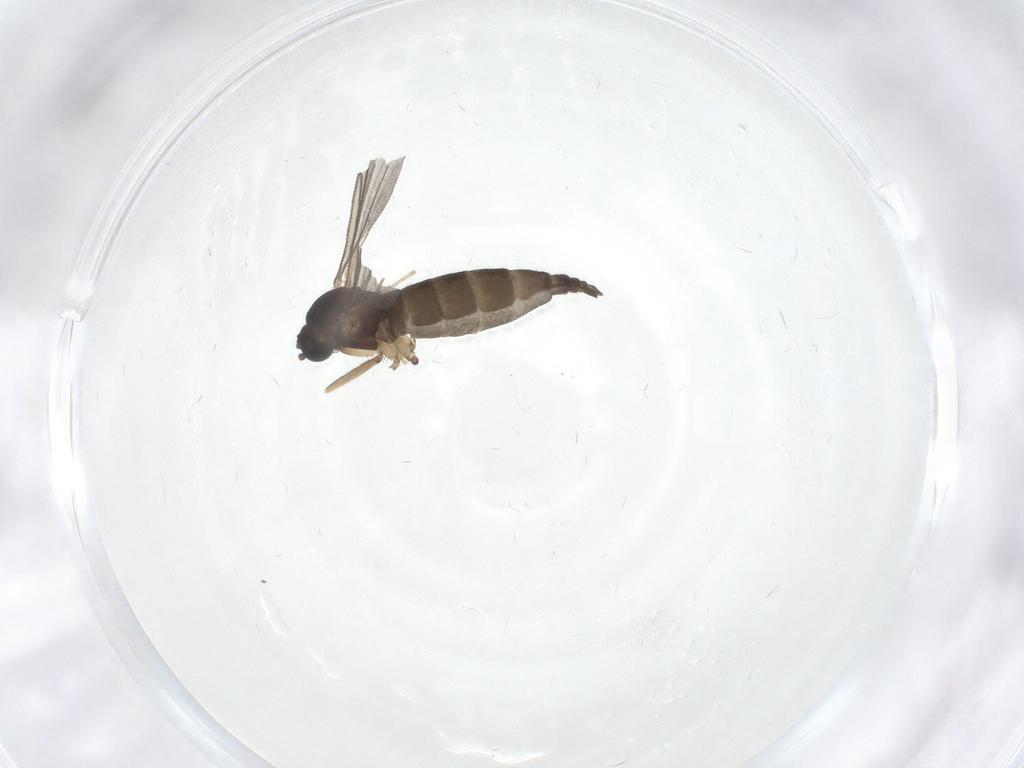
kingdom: Animalia
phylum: Arthropoda
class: Insecta
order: Diptera
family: Sciaridae
